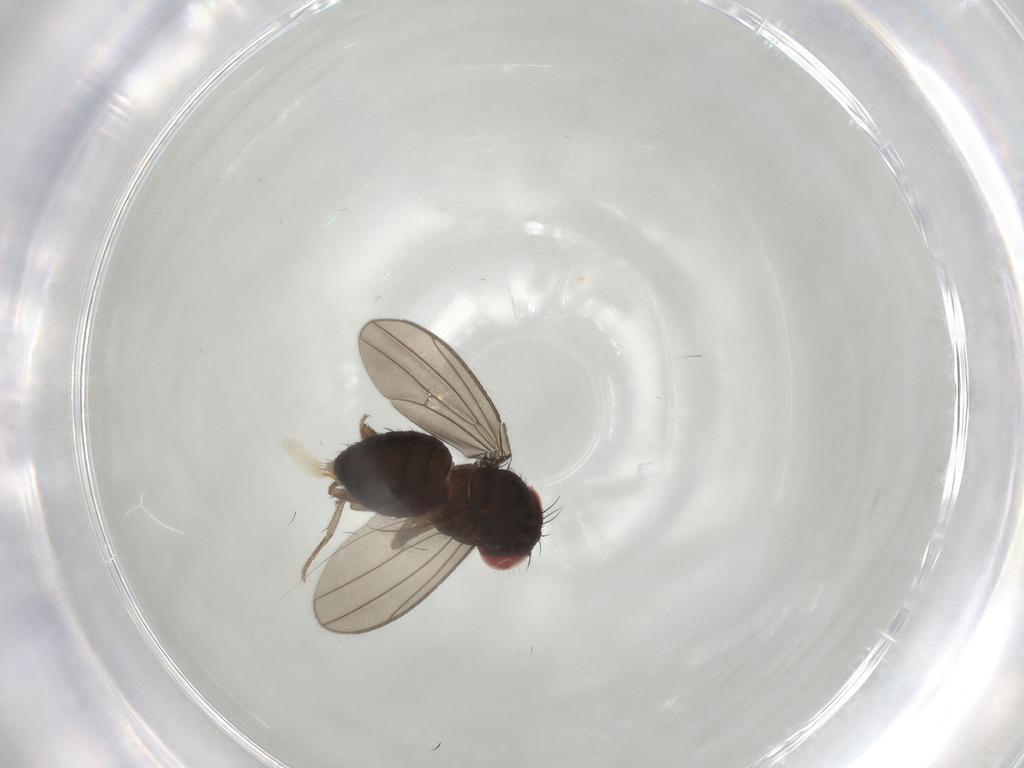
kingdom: Animalia
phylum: Arthropoda
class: Insecta
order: Diptera
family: Drosophilidae
